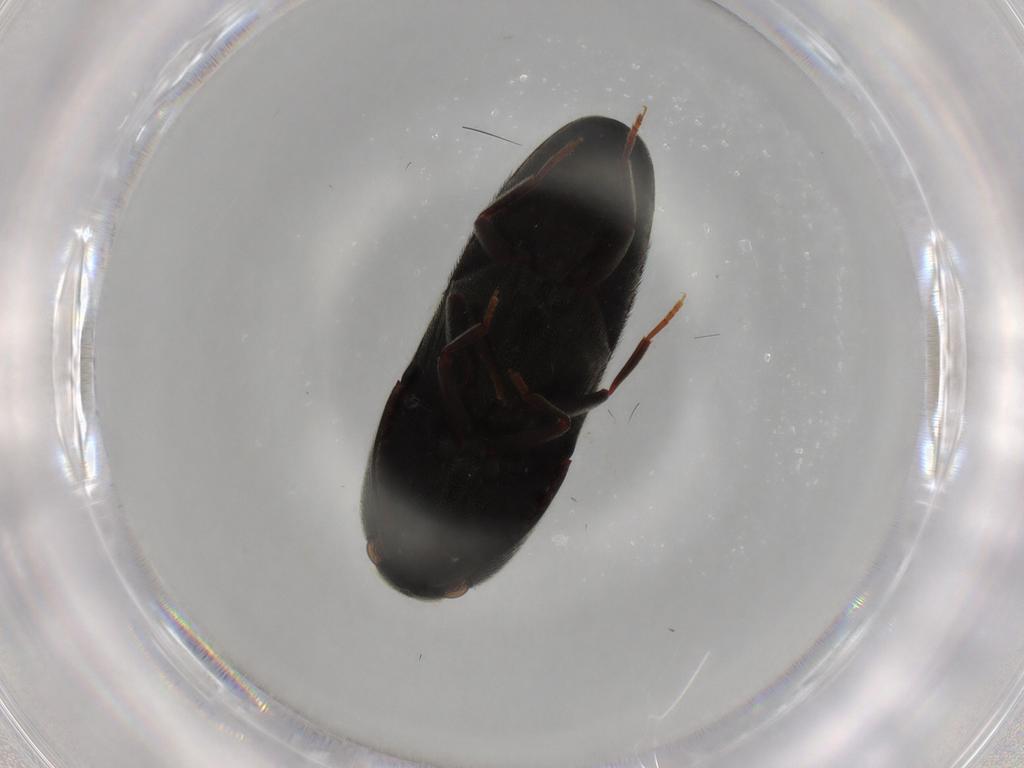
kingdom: Animalia
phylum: Arthropoda
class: Insecta
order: Coleoptera
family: Eucnemidae
